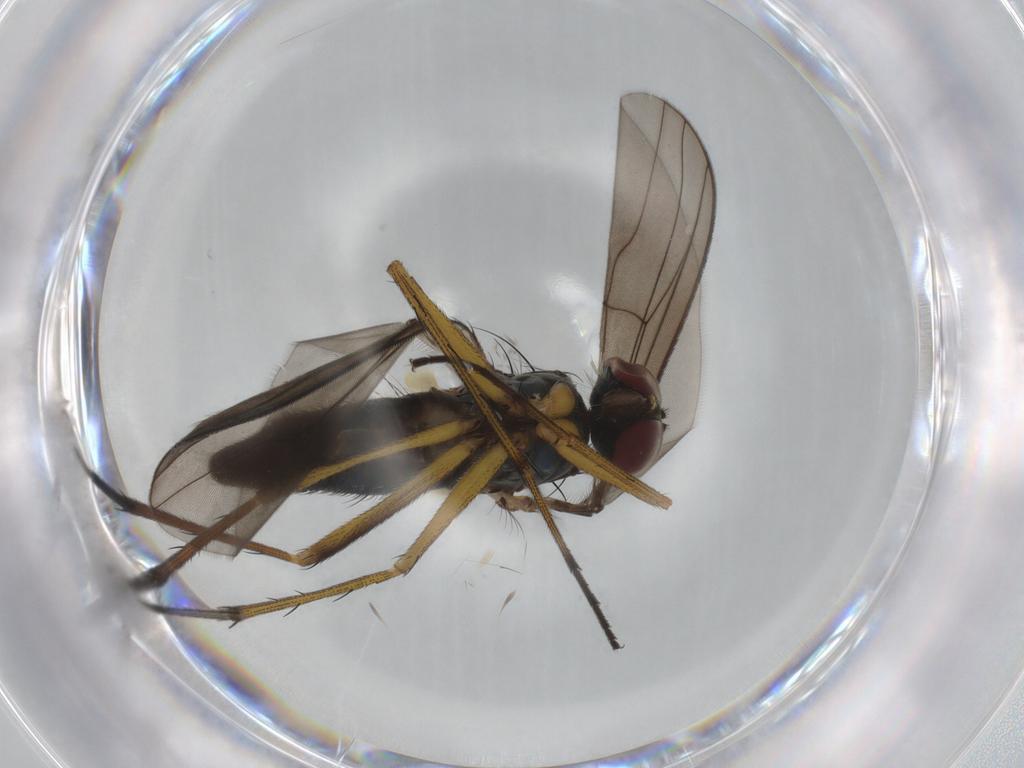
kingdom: Animalia
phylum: Arthropoda
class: Insecta
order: Diptera
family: Dolichopodidae
